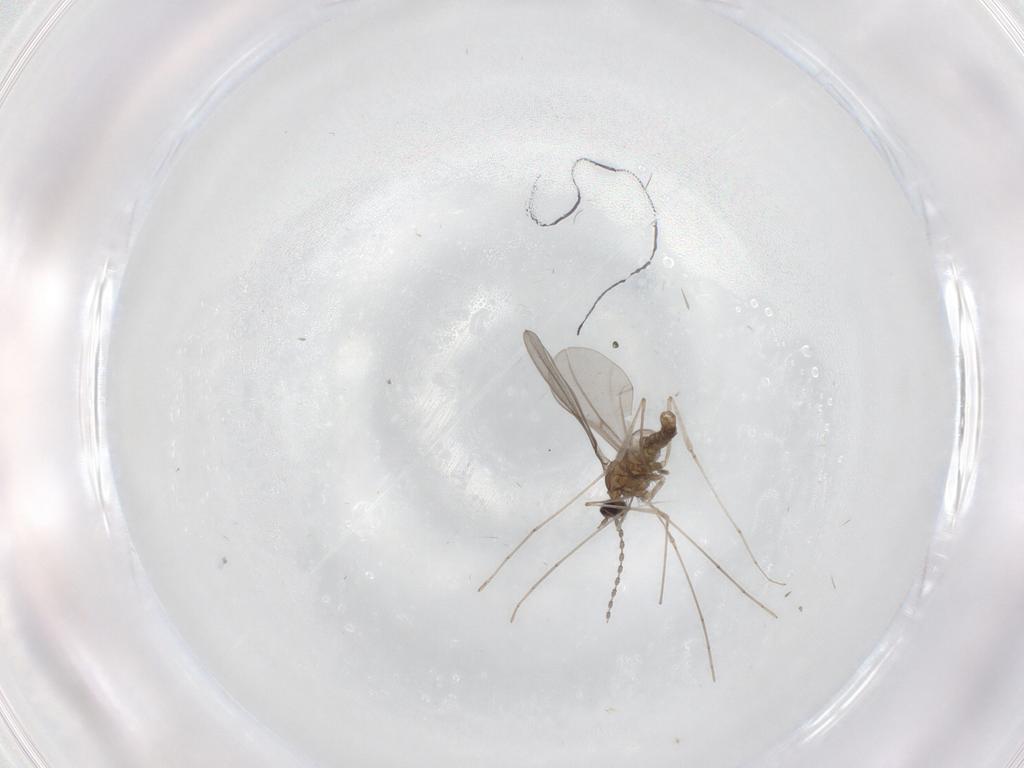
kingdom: Animalia
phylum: Arthropoda
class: Insecta
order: Diptera
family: Cecidomyiidae
